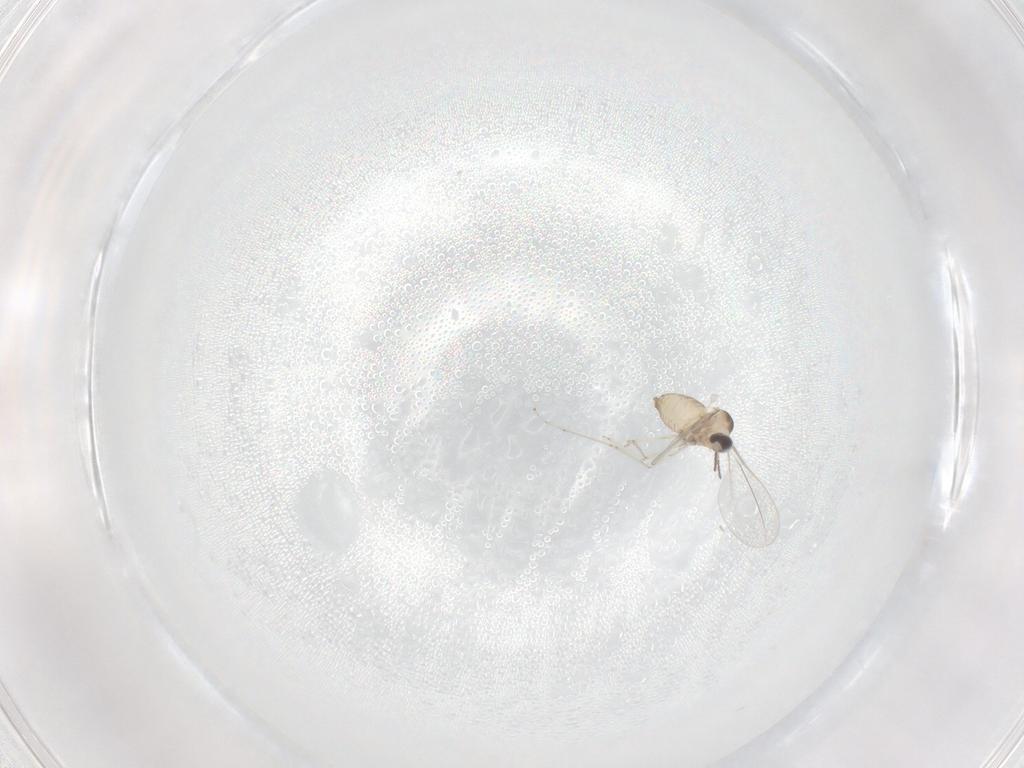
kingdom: Animalia
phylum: Arthropoda
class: Insecta
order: Diptera
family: Cecidomyiidae
